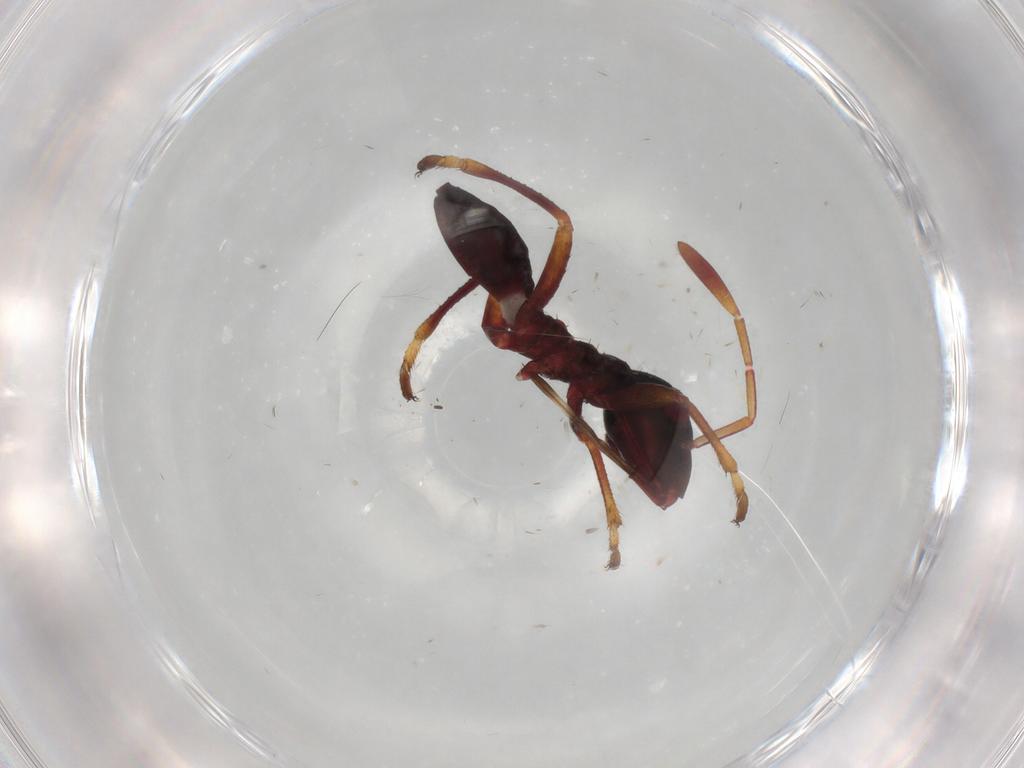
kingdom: Animalia
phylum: Arthropoda
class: Insecta
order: Hemiptera
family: Alydidae
